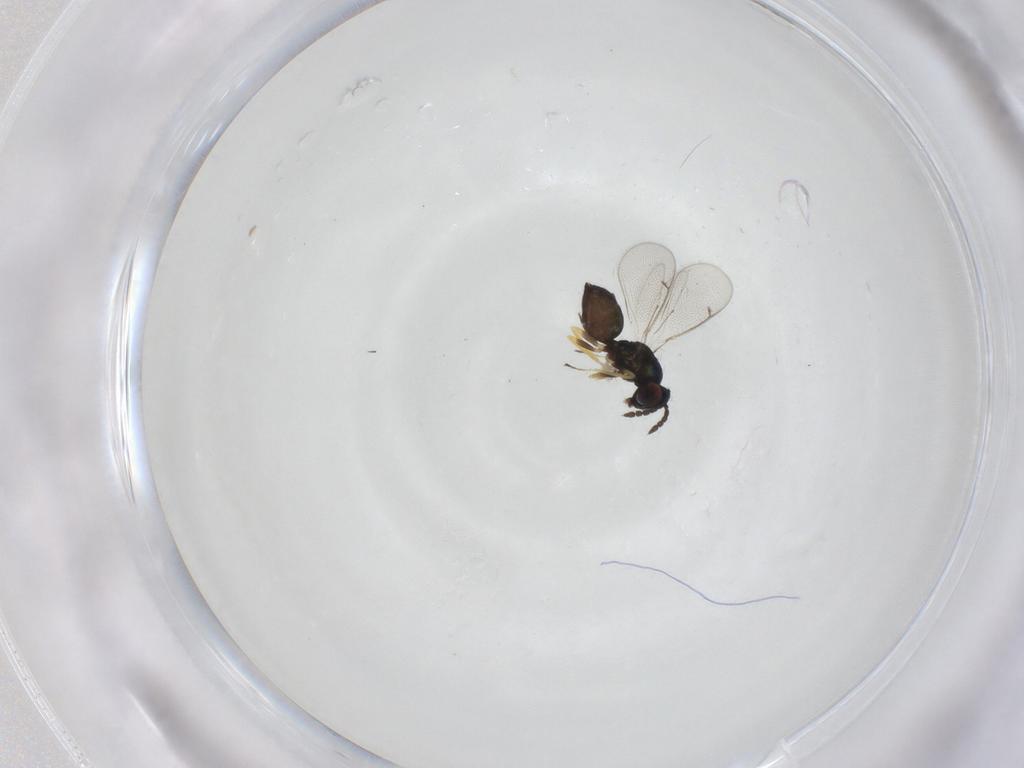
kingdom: Animalia
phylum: Arthropoda
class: Insecta
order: Hymenoptera
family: Eulophidae
